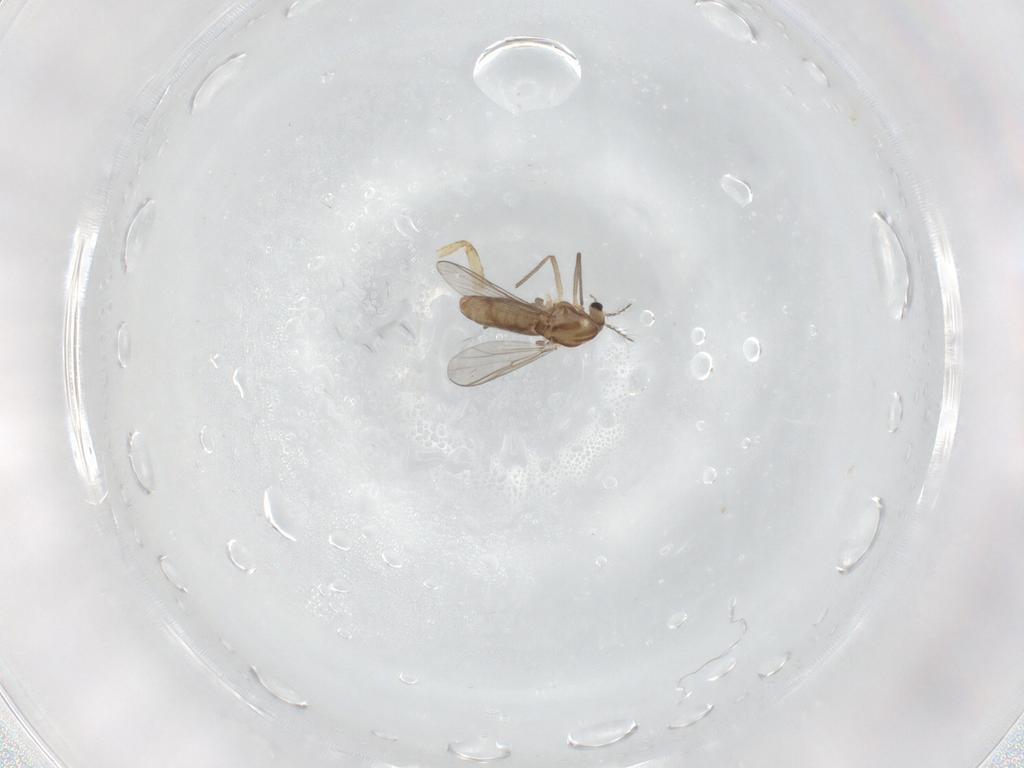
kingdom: Animalia
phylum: Arthropoda
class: Insecta
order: Diptera
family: Chironomidae
